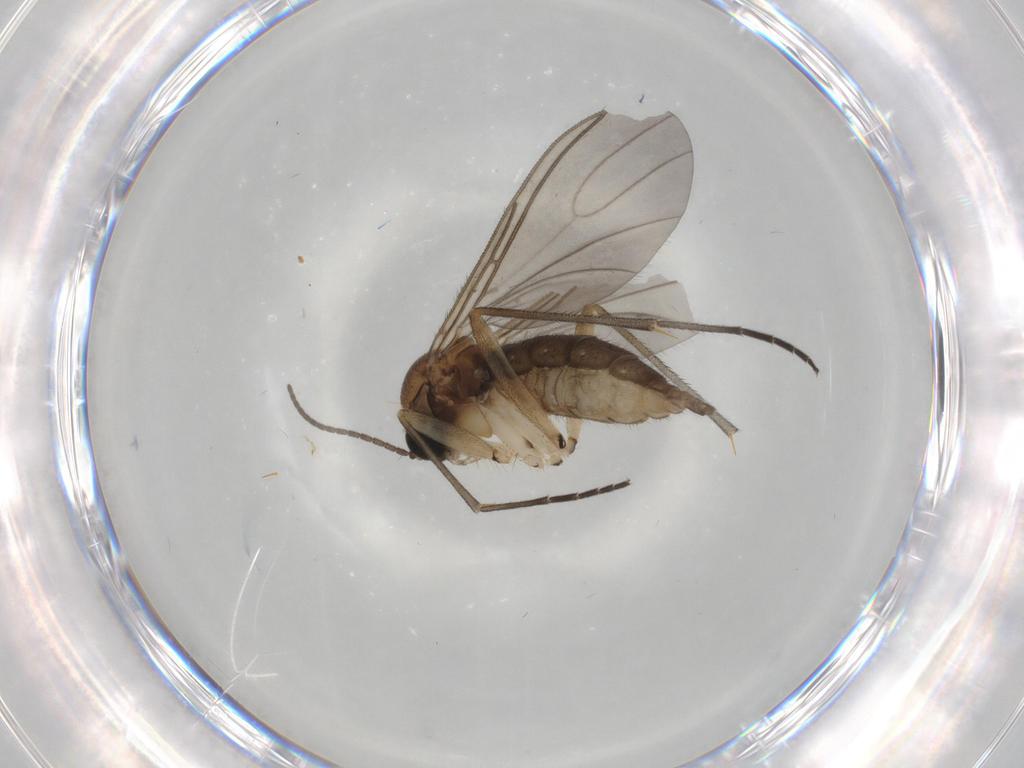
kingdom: Animalia
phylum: Arthropoda
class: Insecta
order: Diptera
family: Sciaridae
